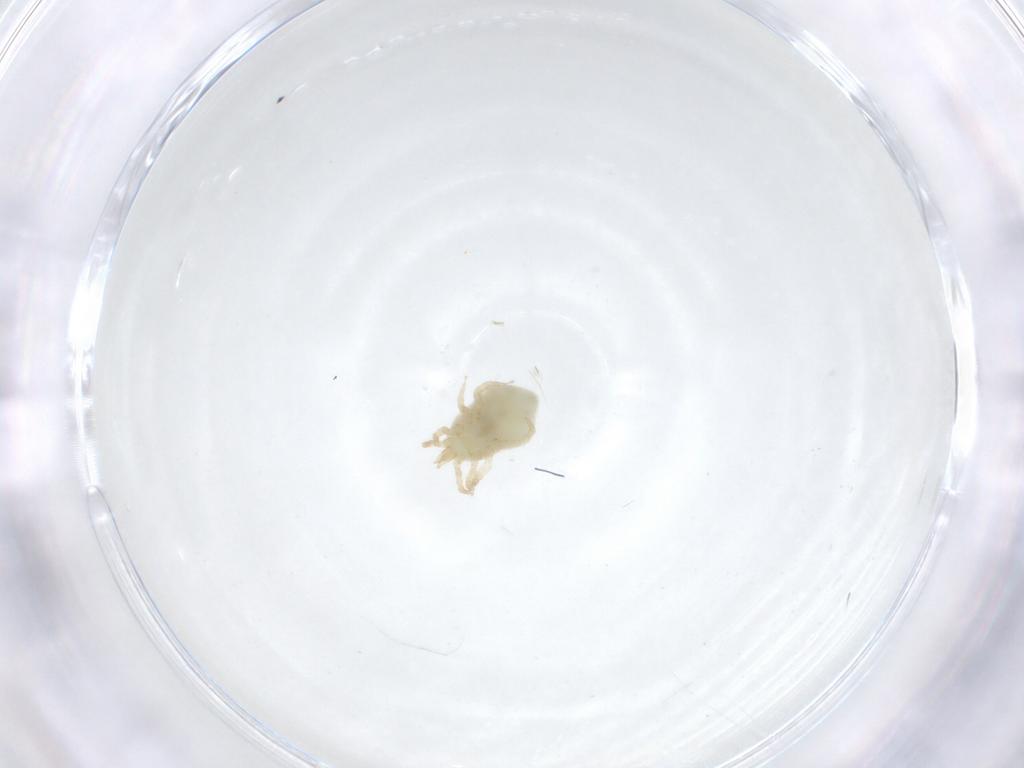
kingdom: Animalia
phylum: Arthropoda
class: Arachnida
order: Mesostigmata
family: Melicharidae
